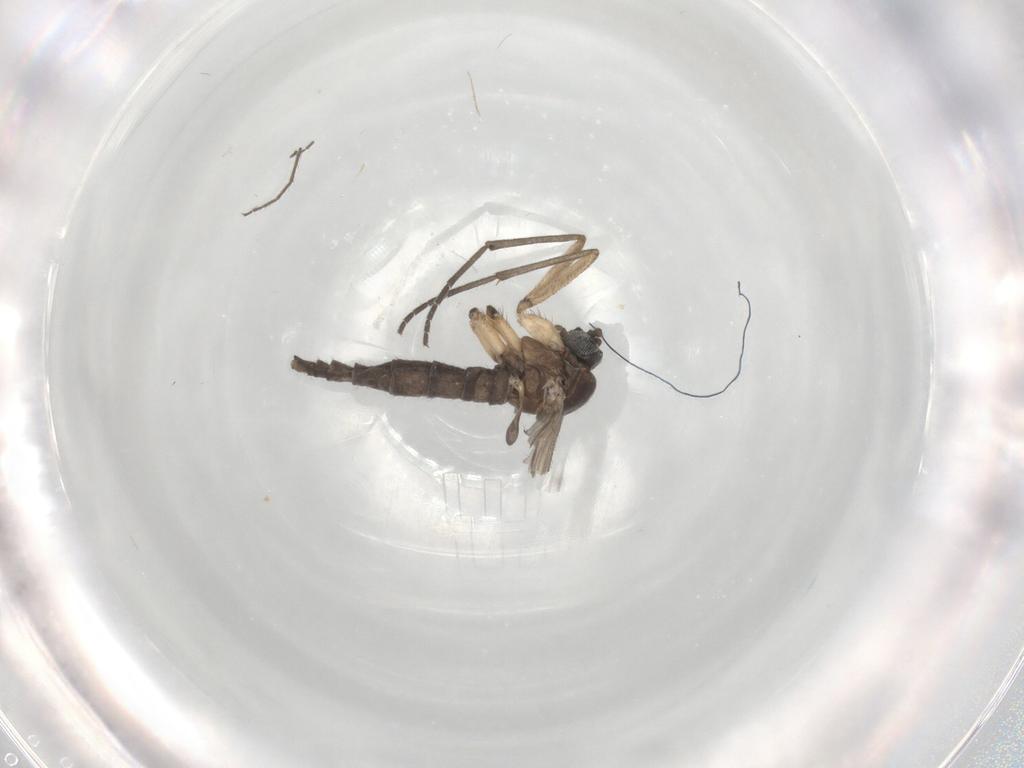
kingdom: Animalia
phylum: Arthropoda
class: Insecta
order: Diptera
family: Sciaridae
